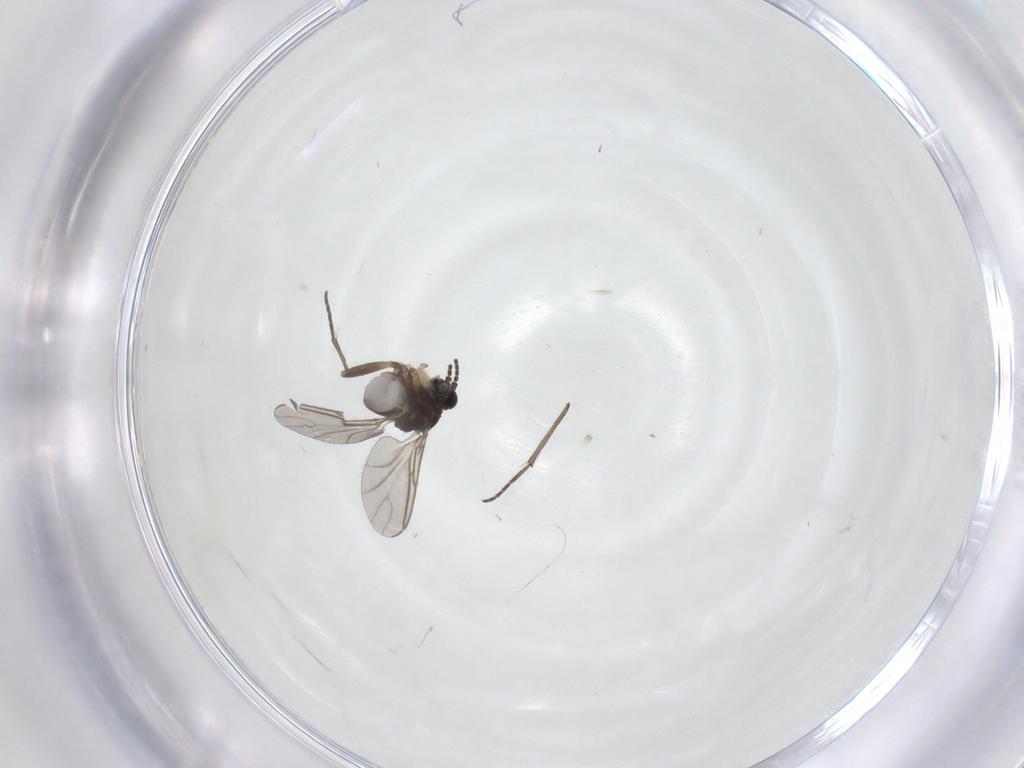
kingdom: Animalia
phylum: Arthropoda
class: Insecta
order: Diptera
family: Sciaridae
